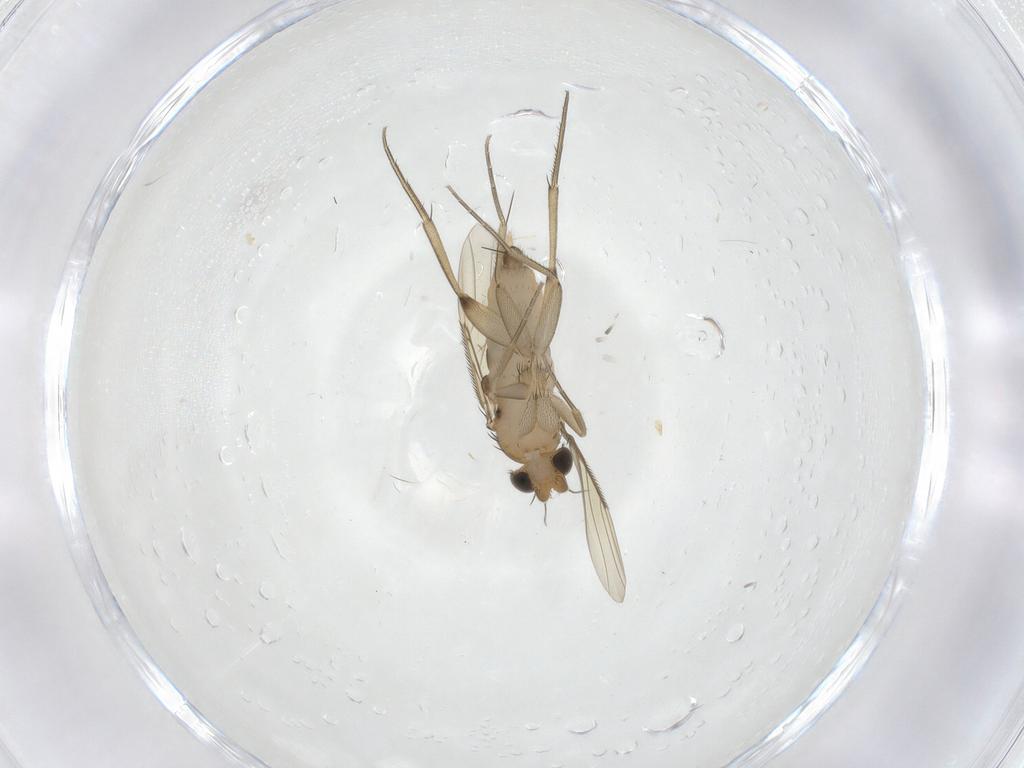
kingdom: Animalia
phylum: Arthropoda
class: Insecta
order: Diptera
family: Phoridae
